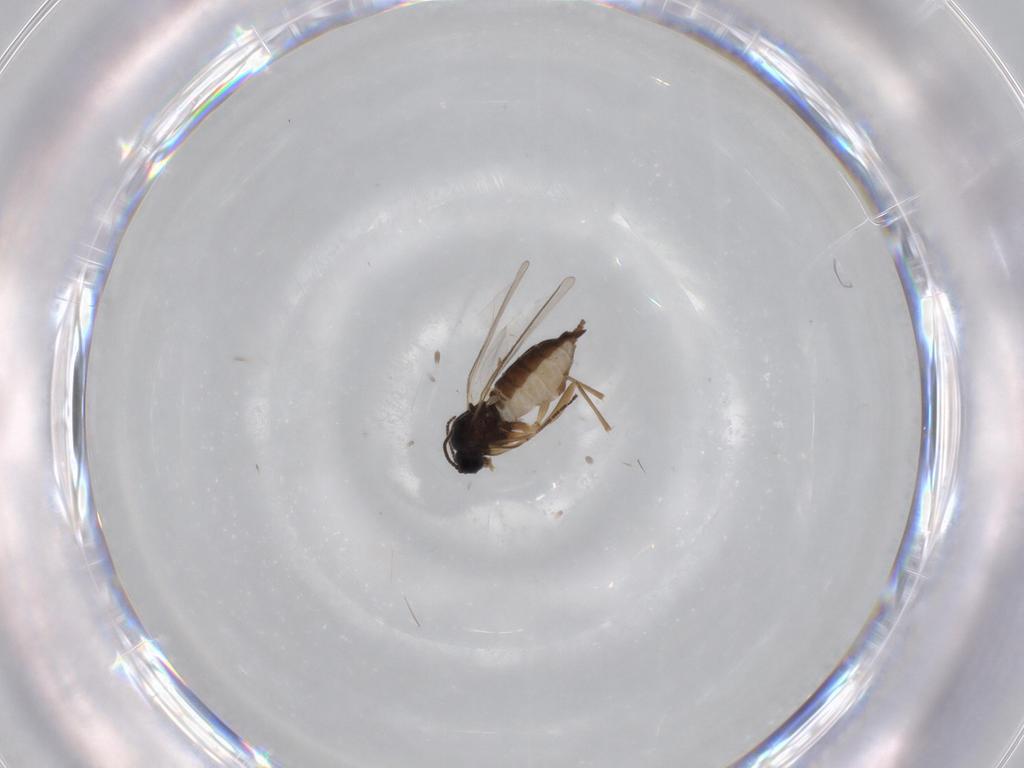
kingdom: Animalia
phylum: Arthropoda
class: Insecta
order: Diptera
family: Sciaridae
